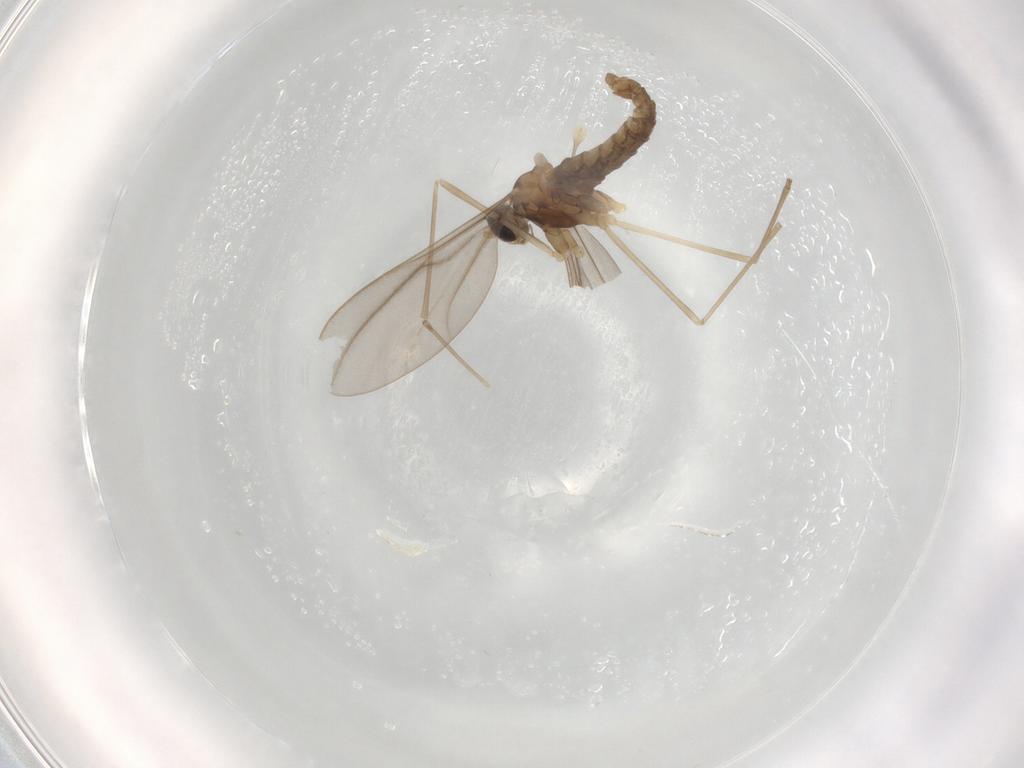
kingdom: Animalia
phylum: Arthropoda
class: Insecta
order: Diptera
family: Cecidomyiidae
